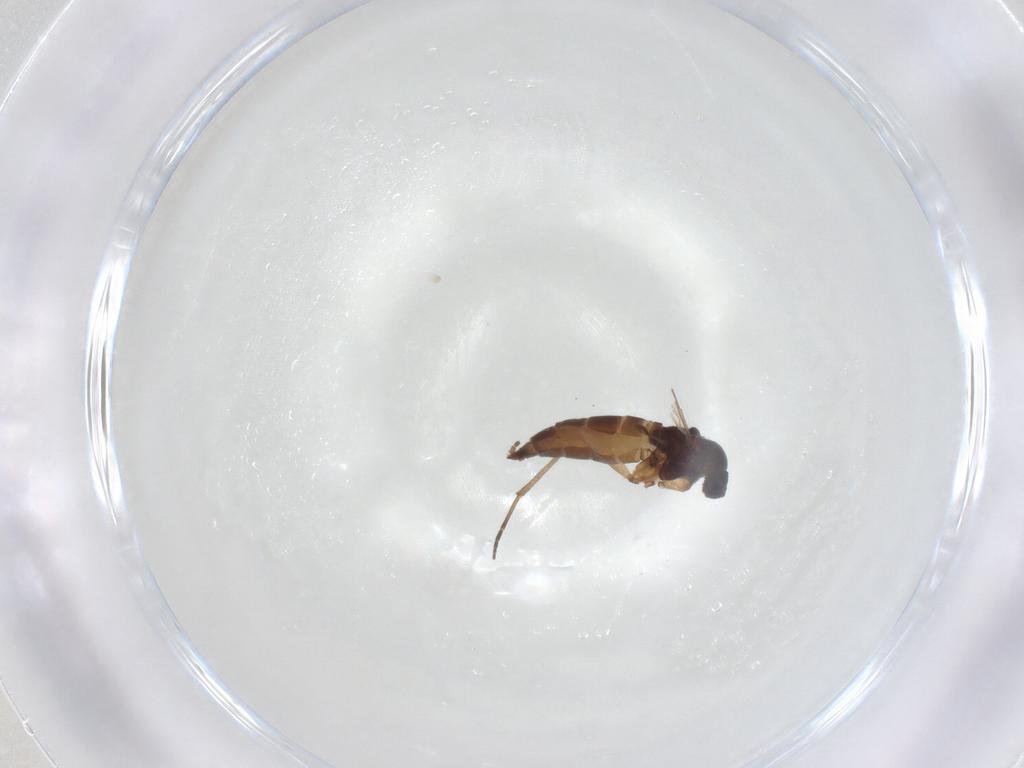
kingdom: Animalia
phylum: Arthropoda
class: Insecta
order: Diptera
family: Sciaridae
